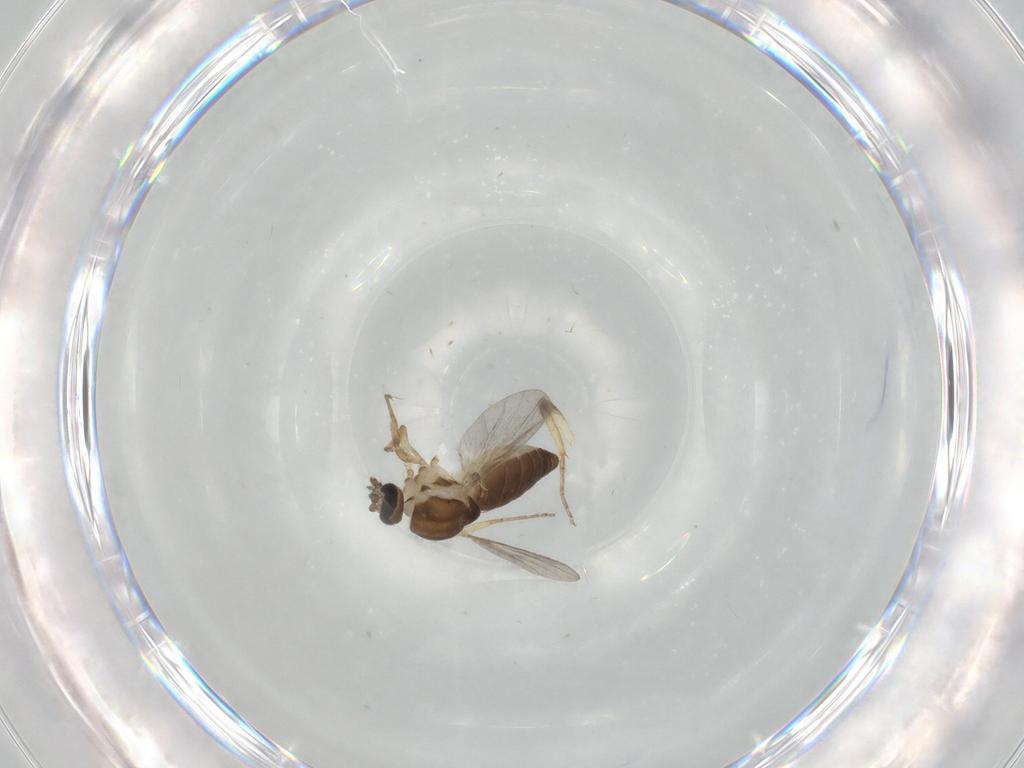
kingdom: Animalia
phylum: Arthropoda
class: Insecta
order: Diptera
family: Ceratopogonidae
